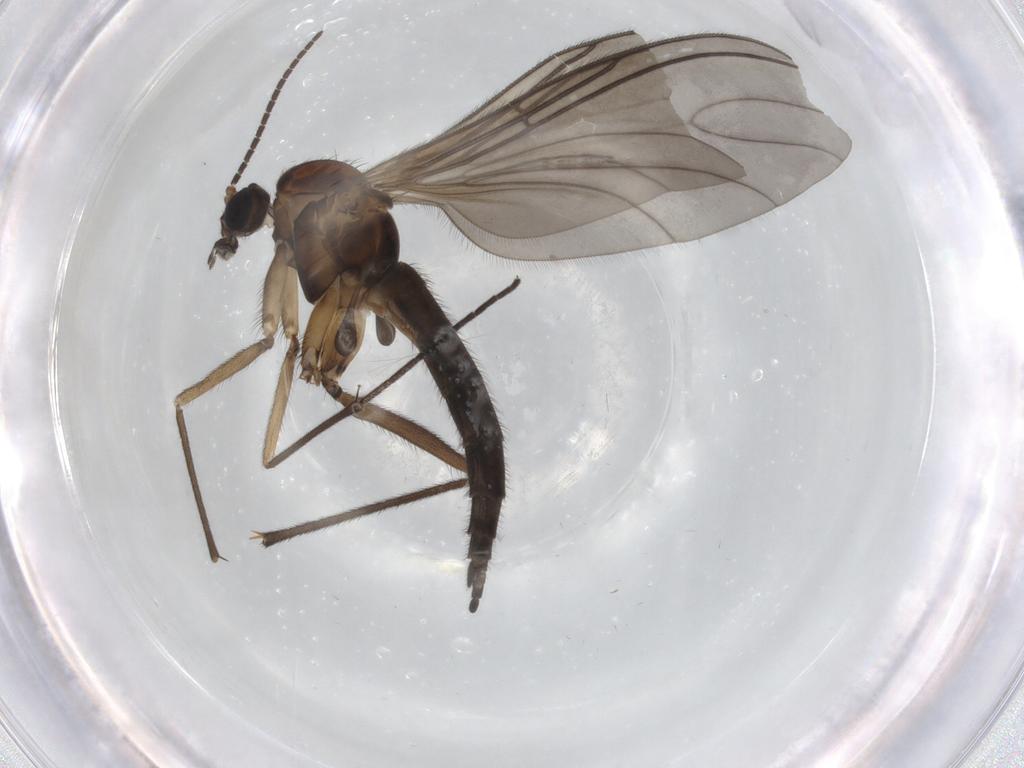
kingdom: Animalia
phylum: Arthropoda
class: Insecta
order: Diptera
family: Sciaridae
